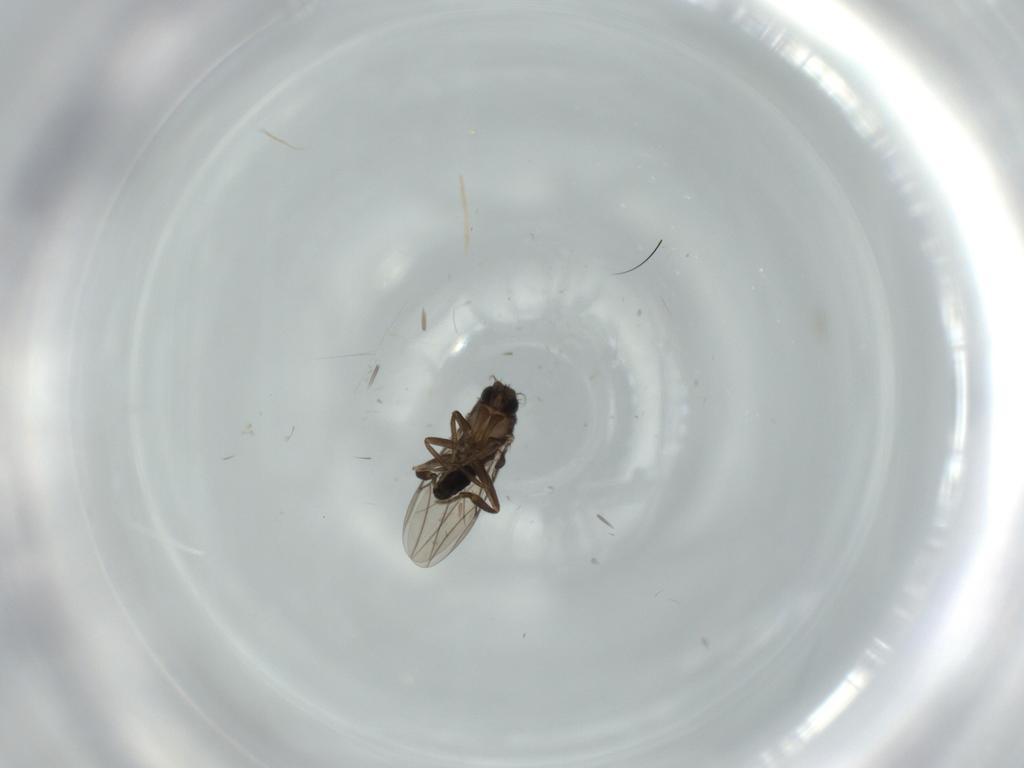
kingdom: Animalia
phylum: Arthropoda
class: Insecta
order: Diptera
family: Phoridae
